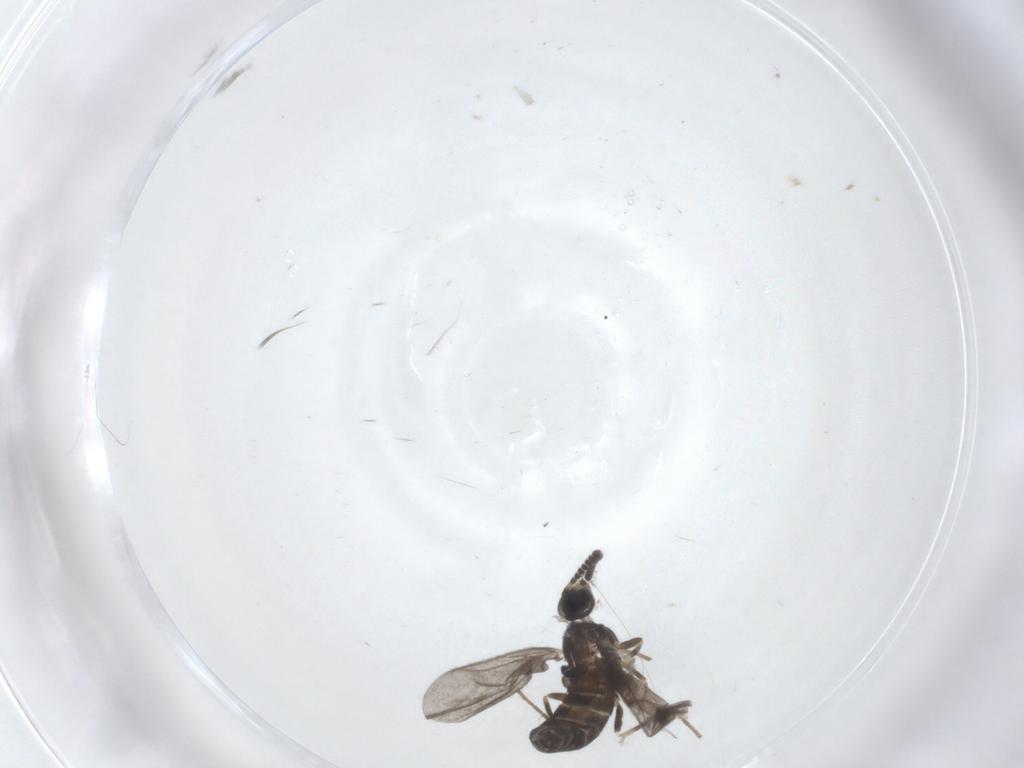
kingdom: Animalia
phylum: Arthropoda
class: Insecta
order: Diptera
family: Scatopsidae
